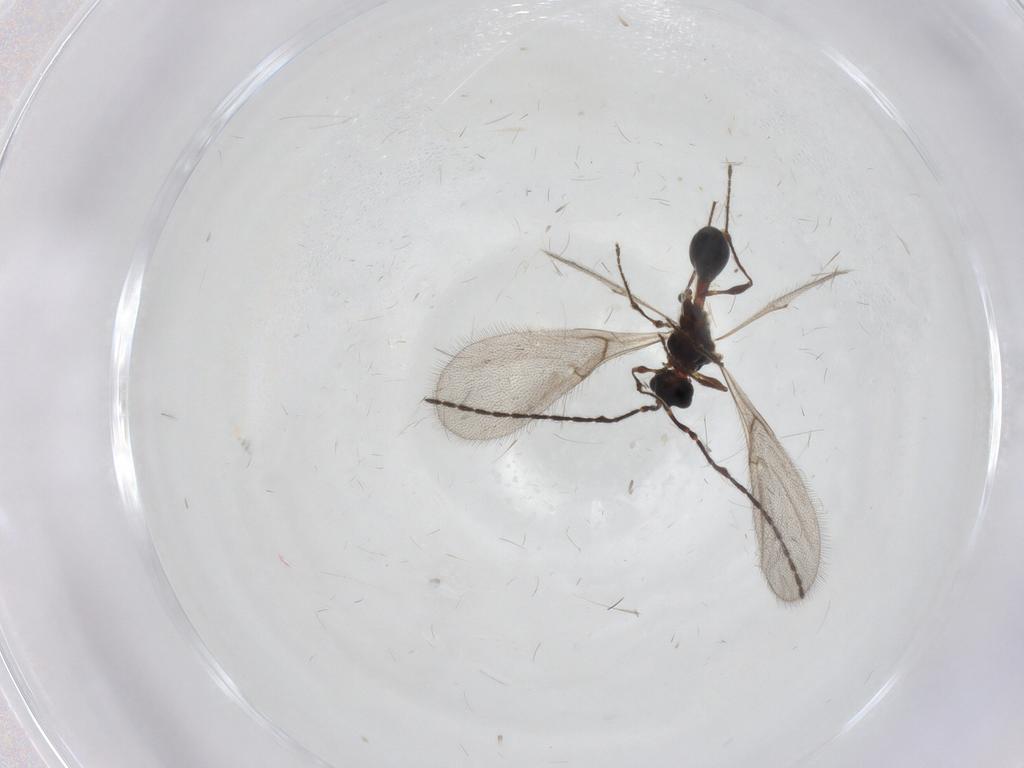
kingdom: Animalia
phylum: Arthropoda
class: Insecta
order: Hymenoptera
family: Diapriidae
